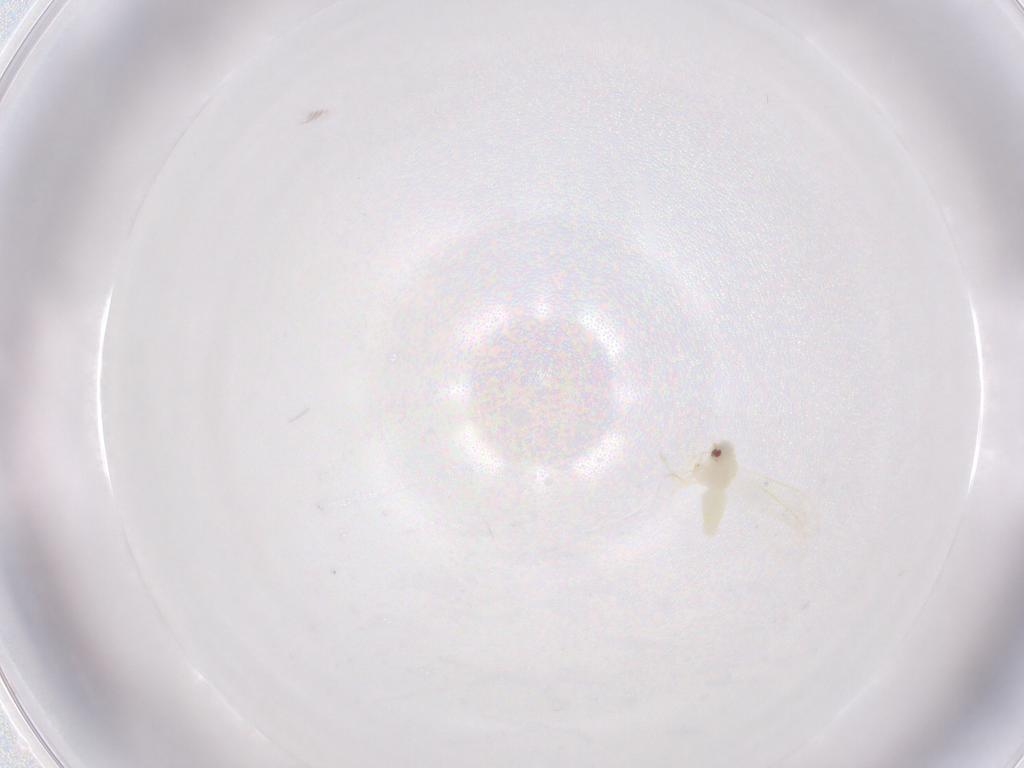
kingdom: Animalia
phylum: Arthropoda
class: Insecta
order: Hemiptera
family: Aleyrodidae
